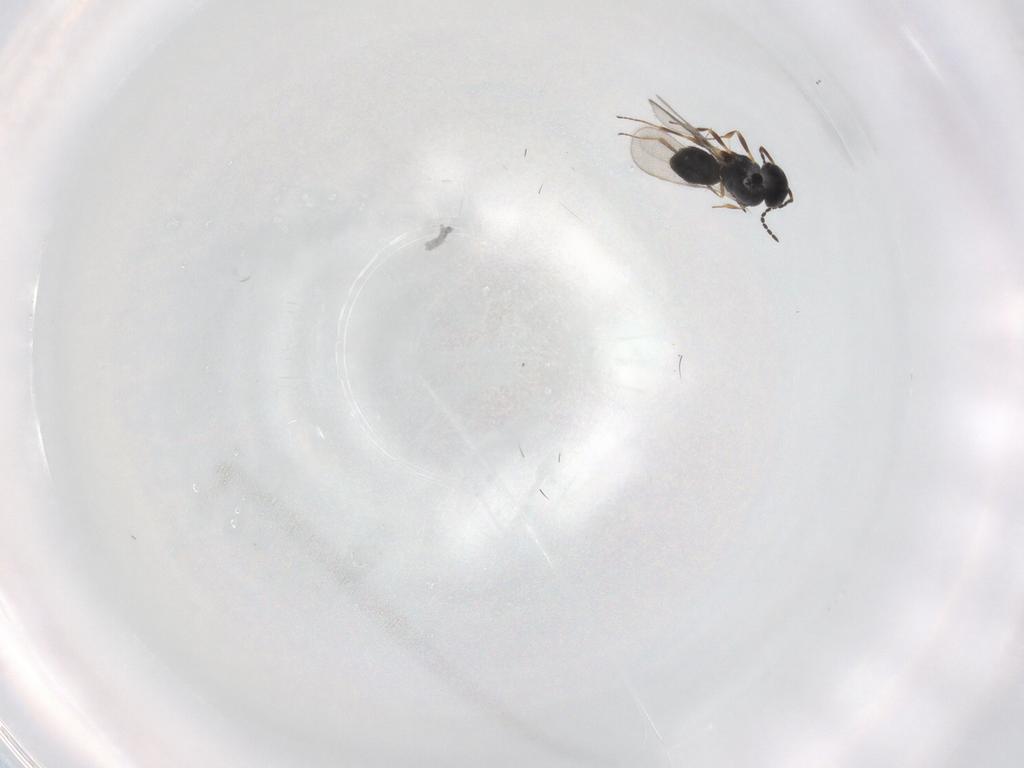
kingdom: Animalia
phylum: Arthropoda
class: Insecta
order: Hymenoptera
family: Scelionidae
